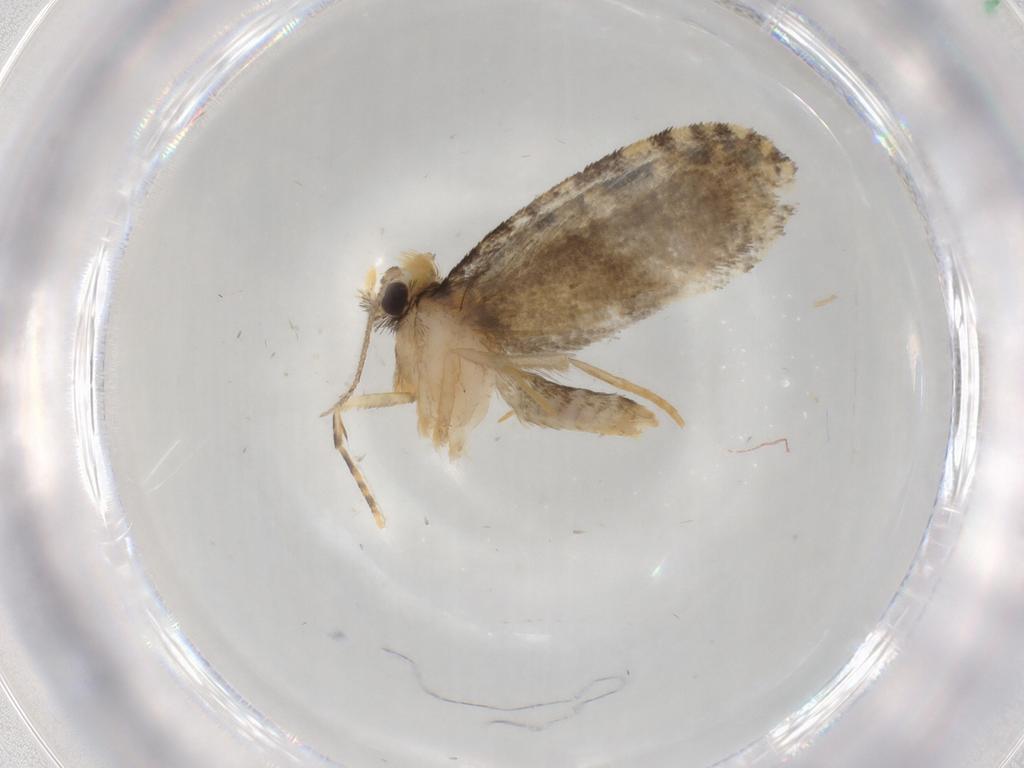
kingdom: Animalia
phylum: Arthropoda
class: Insecta
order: Lepidoptera
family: Psychidae
